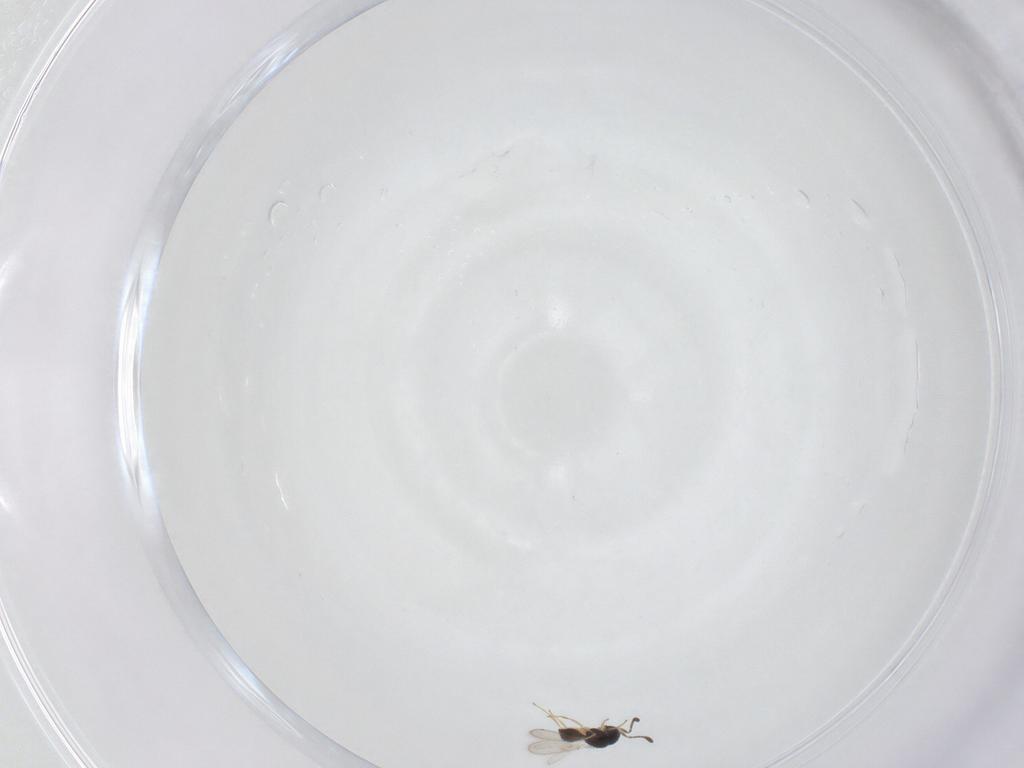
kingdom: Animalia
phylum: Arthropoda
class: Insecta
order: Hymenoptera
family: Scelionidae
